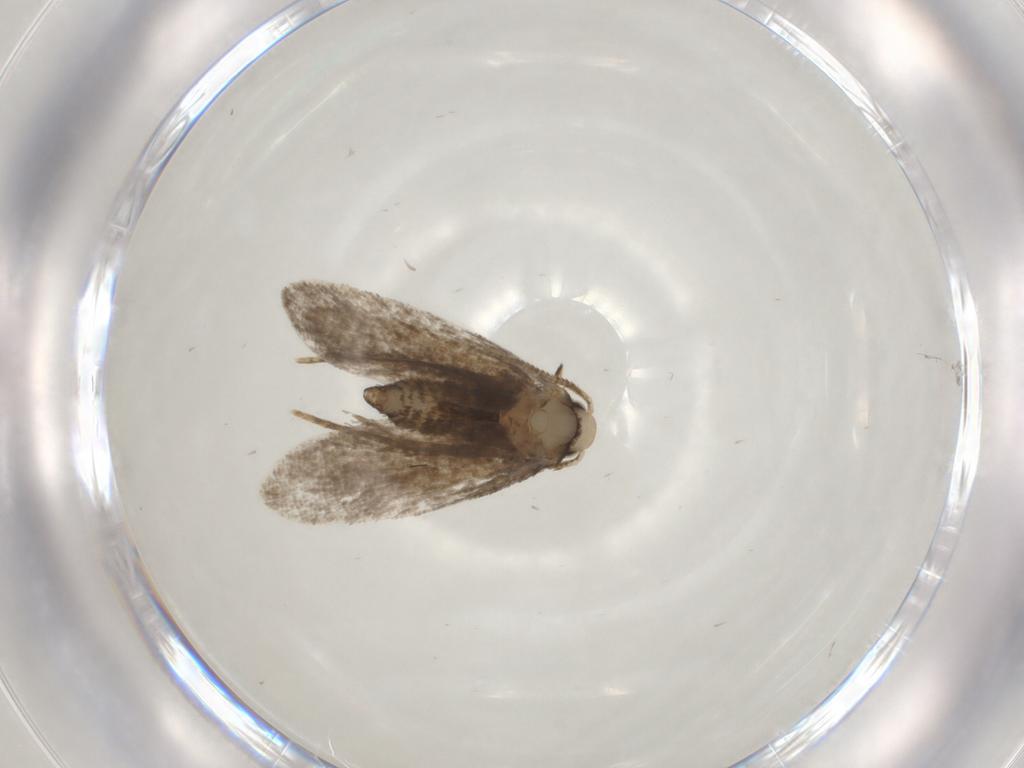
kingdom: Animalia
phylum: Arthropoda
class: Insecta
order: Lepidoptera
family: Psychidae
